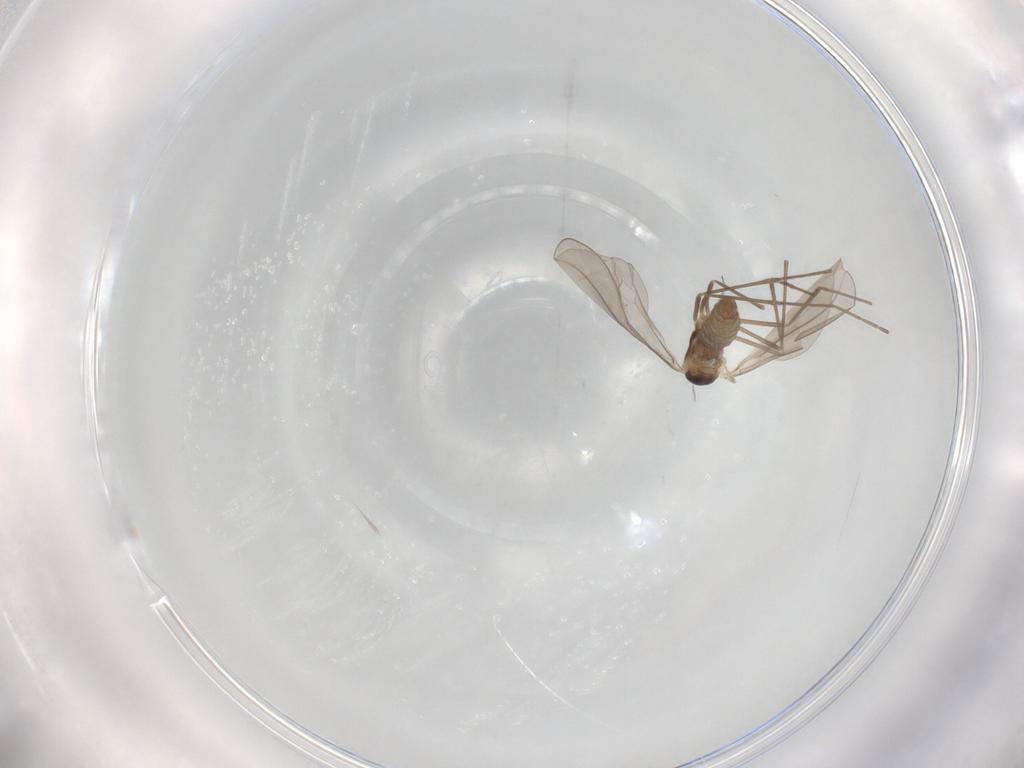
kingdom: Animalia
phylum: Arthropoda
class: Insecta
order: Diptera
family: Cecidomyiidae
